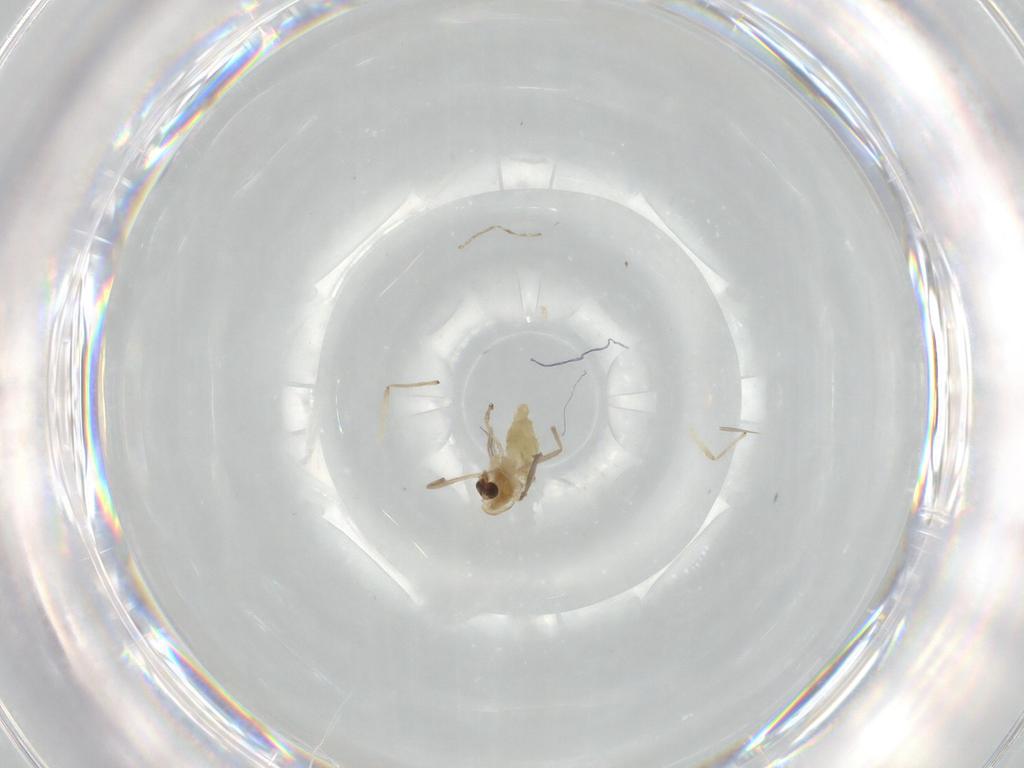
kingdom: Animalia
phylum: Arthropoda
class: Insecta
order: Diptera
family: Chironomidae
